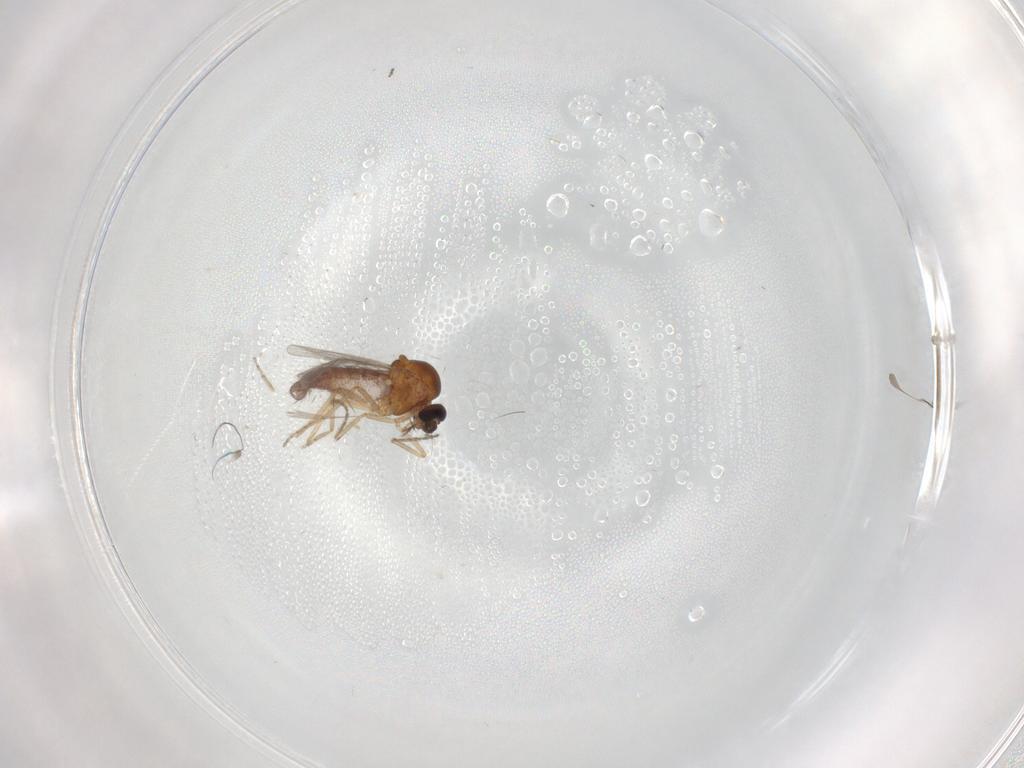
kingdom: Animalia
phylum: Arthropoda
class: Insecta
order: Diptera
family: Ceratopogonidae
